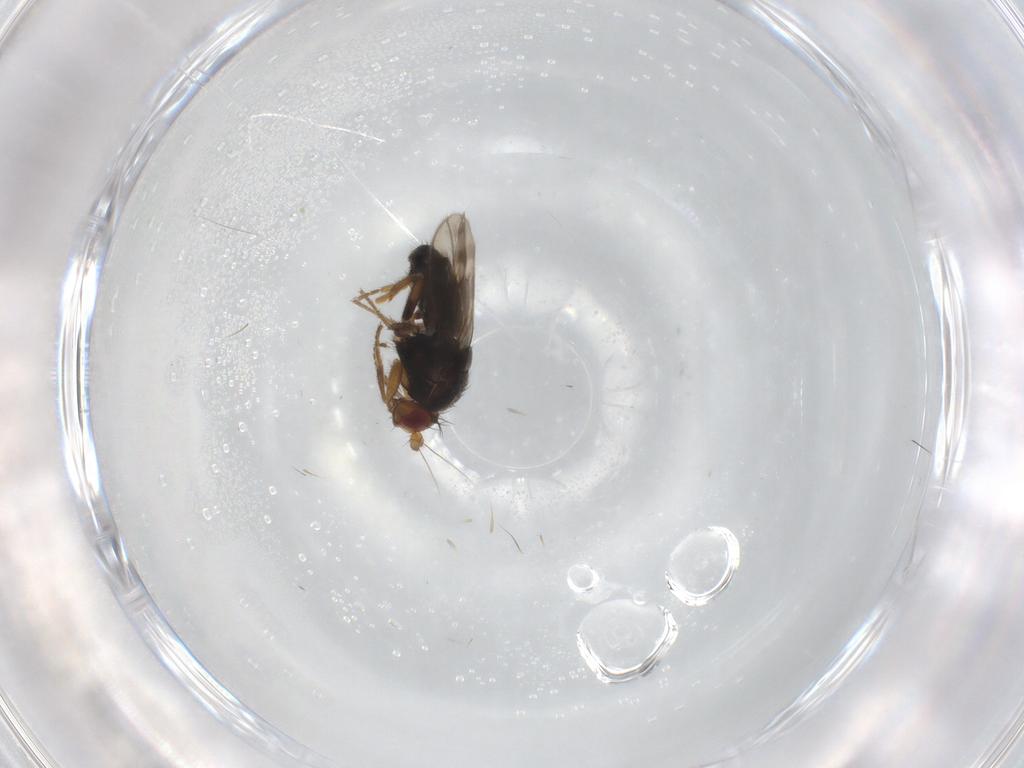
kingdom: Animalia
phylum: Arthropoda
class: Insecta
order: Diptera
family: Sphaeroceridae
